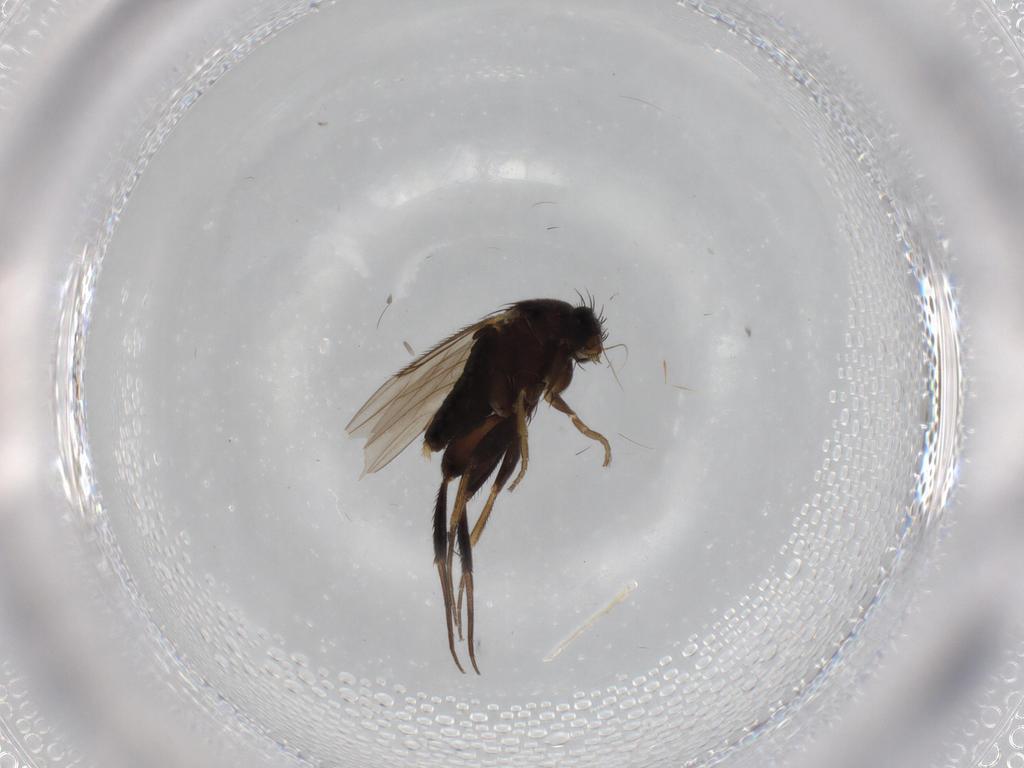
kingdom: Animalia
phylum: Arthropoda
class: Insecta
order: Diptera
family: Phoridae
